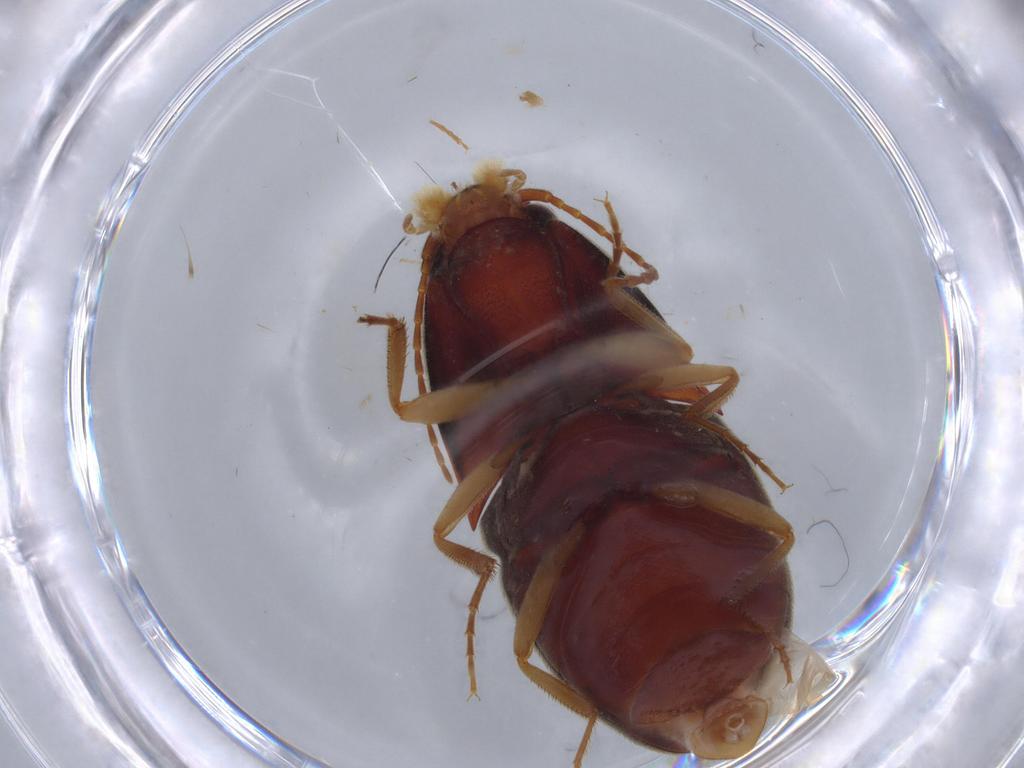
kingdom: Animalia
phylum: Arthropoda
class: Insecta
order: Coleoptera
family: Elateridae
